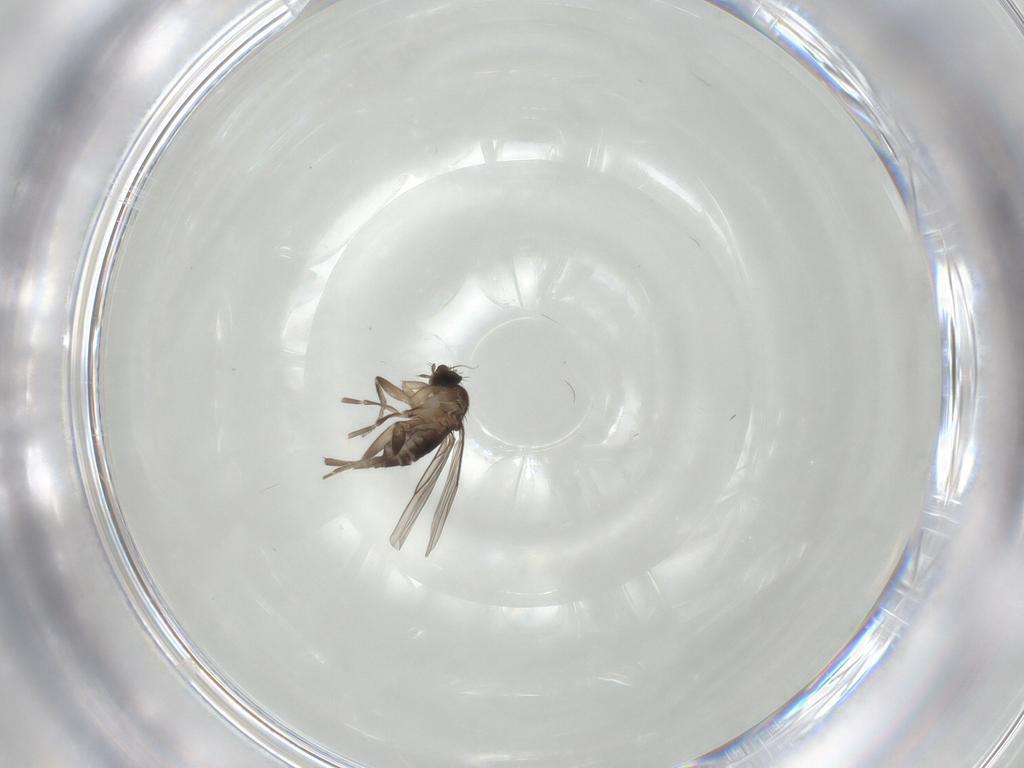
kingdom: Animalia
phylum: Arthropoda
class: Insecta
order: Diptera
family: Phoridae
